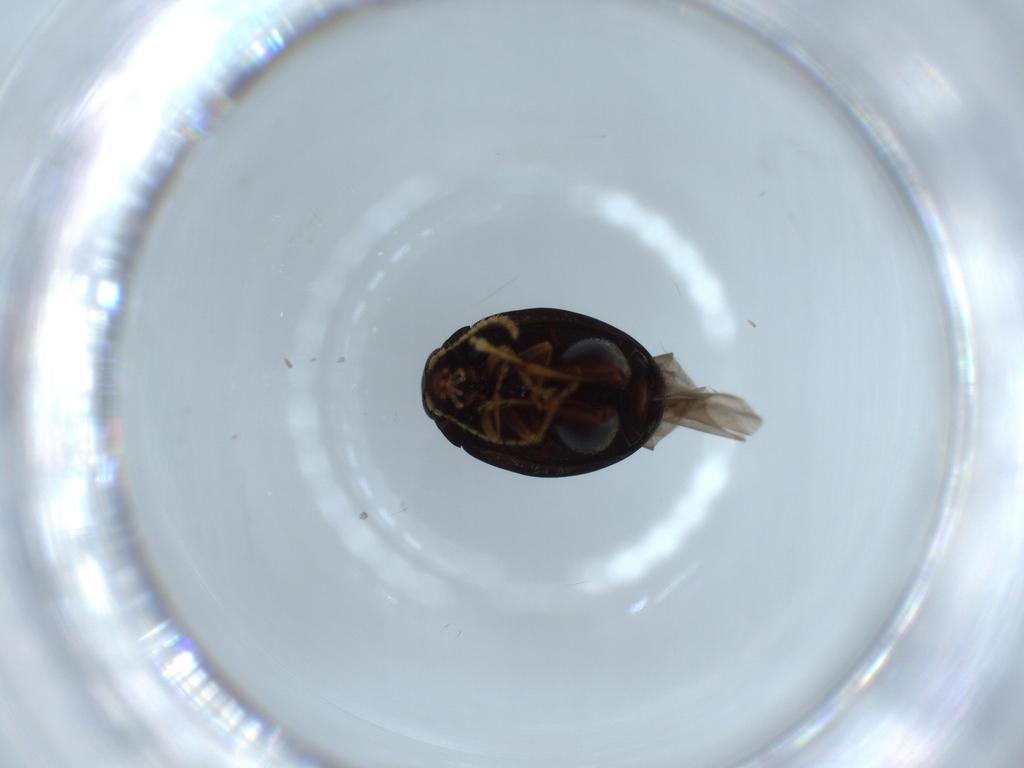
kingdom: Animalia
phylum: Arthropoda
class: Insecta
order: Coleoptera
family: Chrysomelidae
